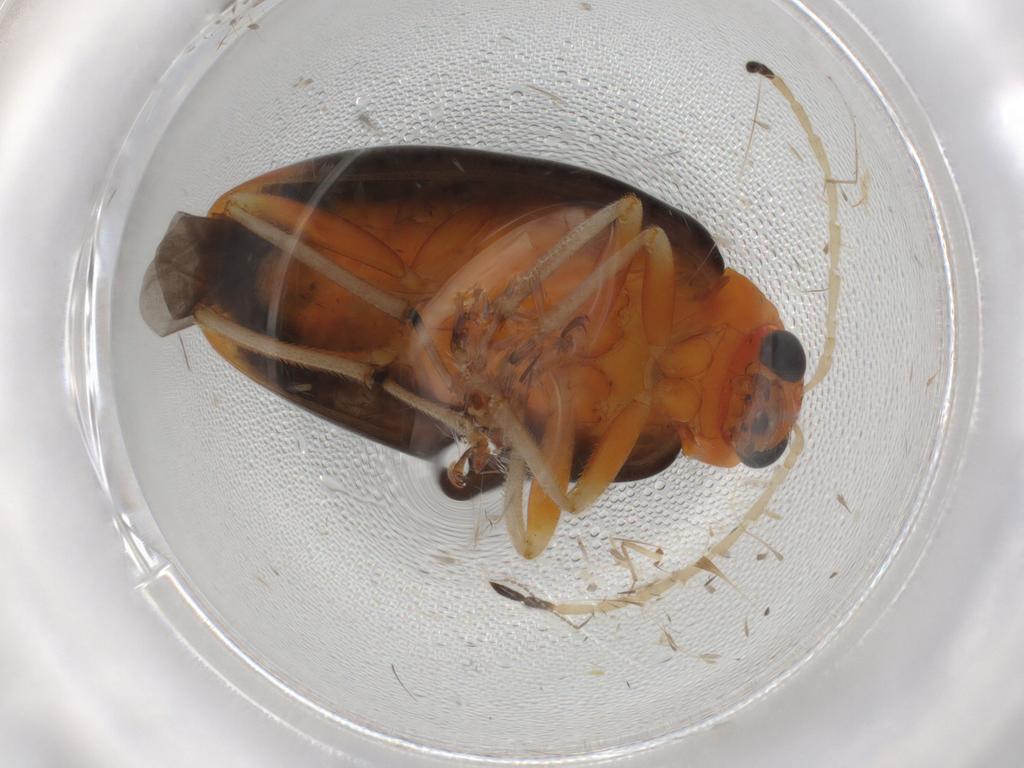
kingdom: Animalia
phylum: Arthropoda
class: Insecta
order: Coleoptera
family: Chrysomelidae
